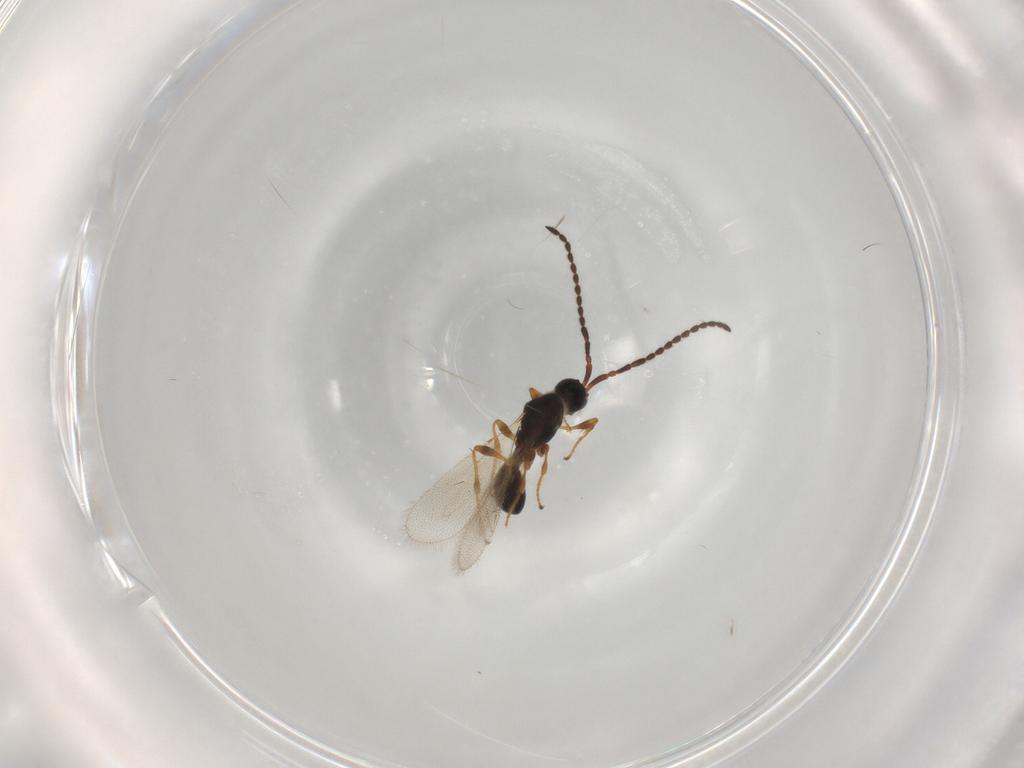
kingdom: Animalia
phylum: Arthropoda
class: Insecta
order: Hymenoptera
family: Diapriidae
